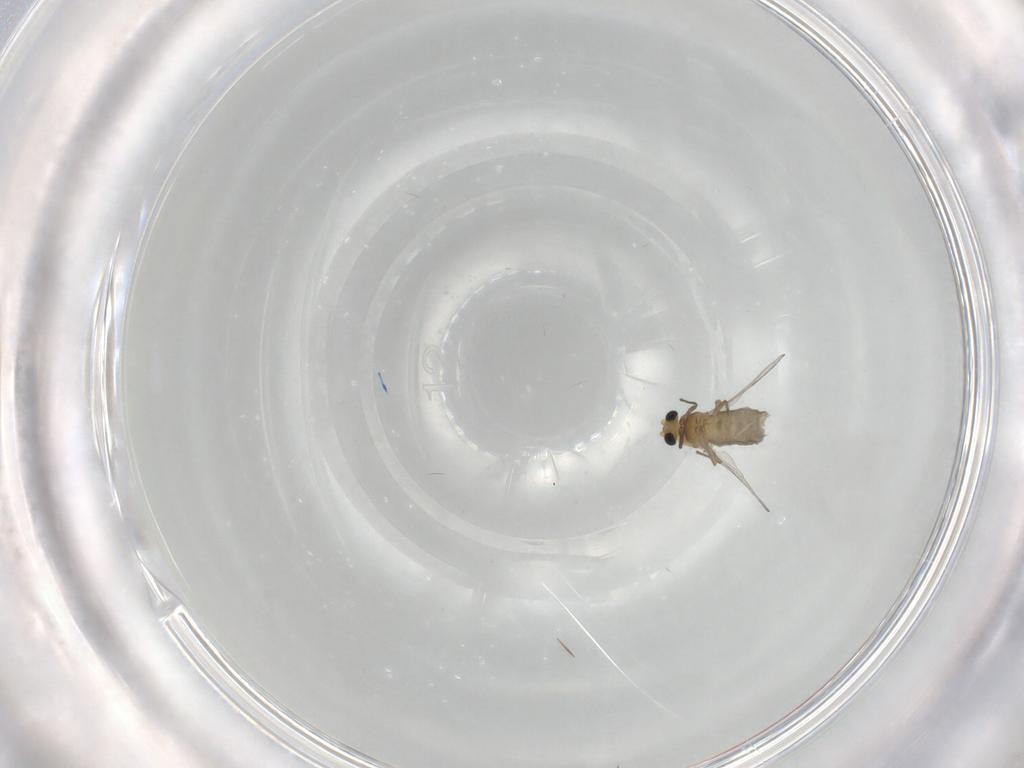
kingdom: Animalia
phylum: Arthropoda
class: Insecta
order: Diptera
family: Chironomidae
